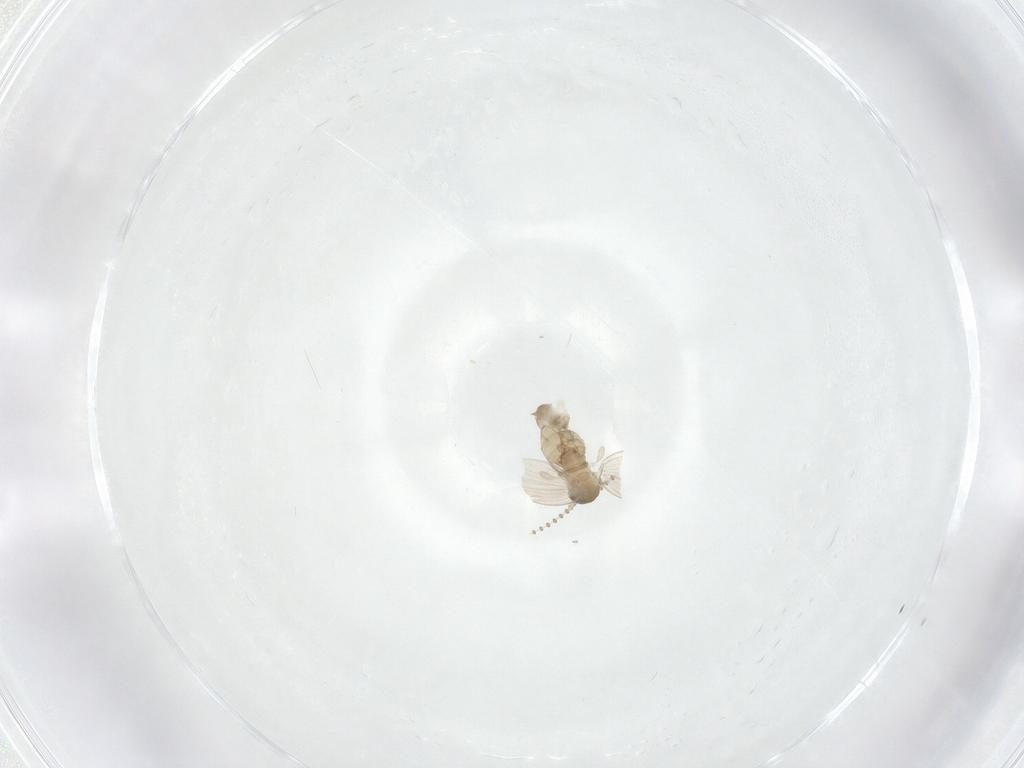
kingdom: Animalia
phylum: Arthropoda
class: Insecta
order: Diptera
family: Psychodidae
